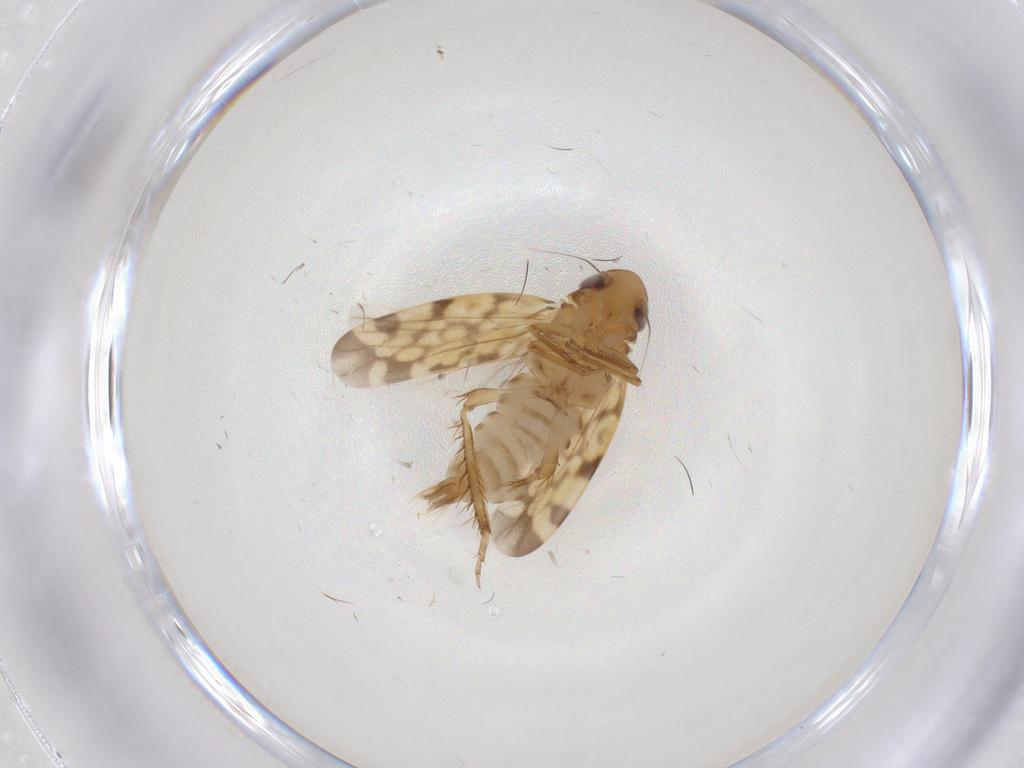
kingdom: Animalia
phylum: Arthropoda
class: Insecta
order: Hemiptera
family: Cicadellidae
